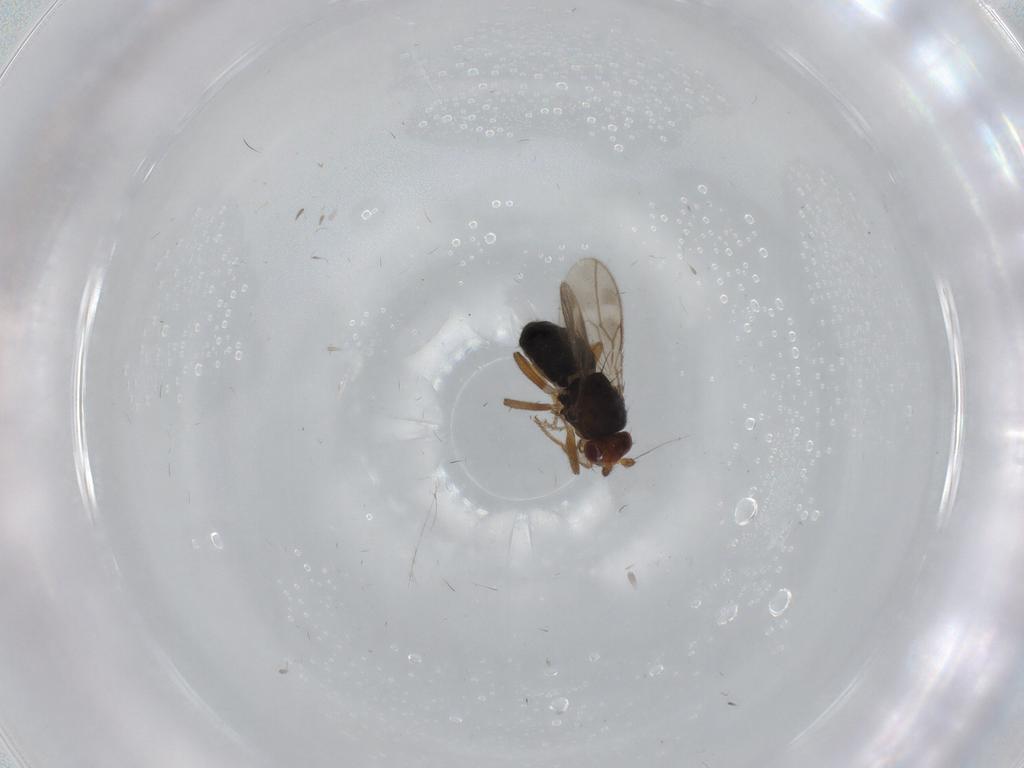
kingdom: Animalia
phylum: Arthropoda
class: Insecta
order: Diptera
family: Sphaeroceridae
